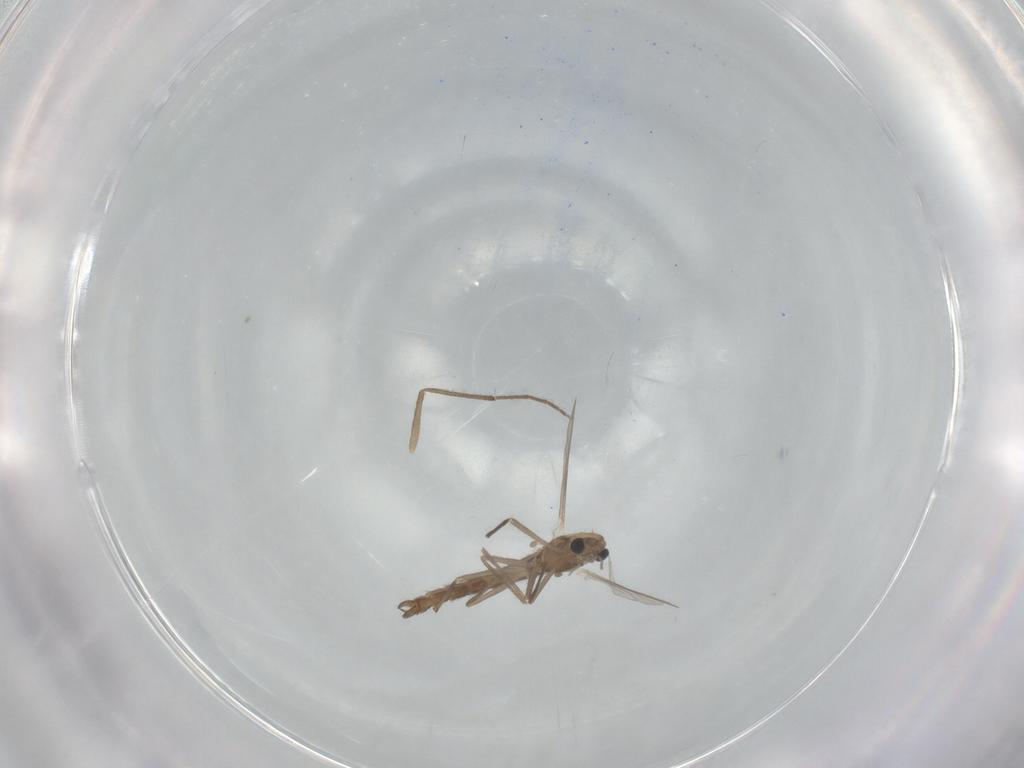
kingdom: Animalia
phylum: Arthropoda
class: Insecta
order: Diptera
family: Chironomidae
